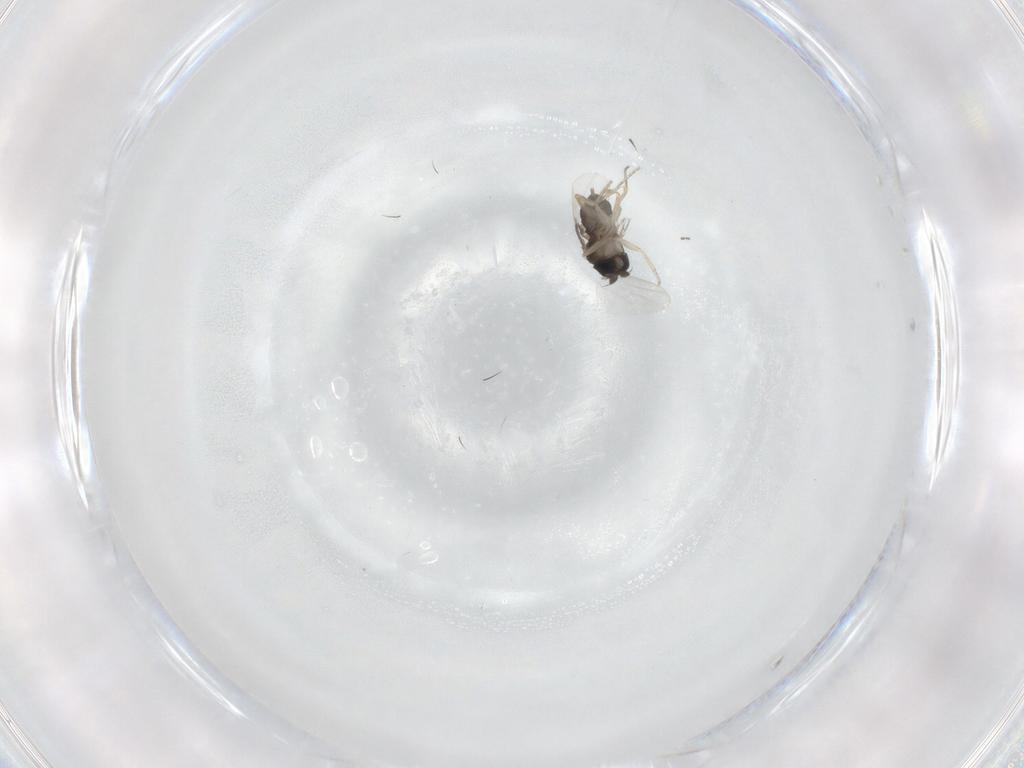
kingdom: Animalia
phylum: Arthropoda
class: Insecta
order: Diptera
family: Phoridae
